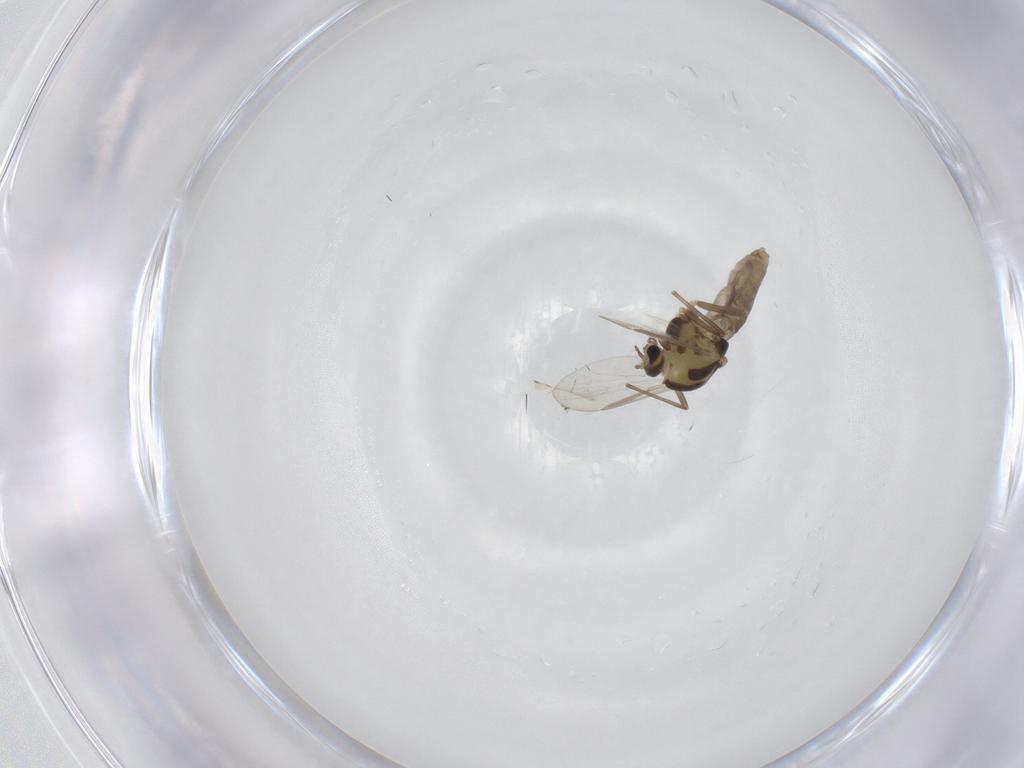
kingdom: Animalia
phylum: Arthropoda
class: Insecta
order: Diptera
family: Chironomidae
